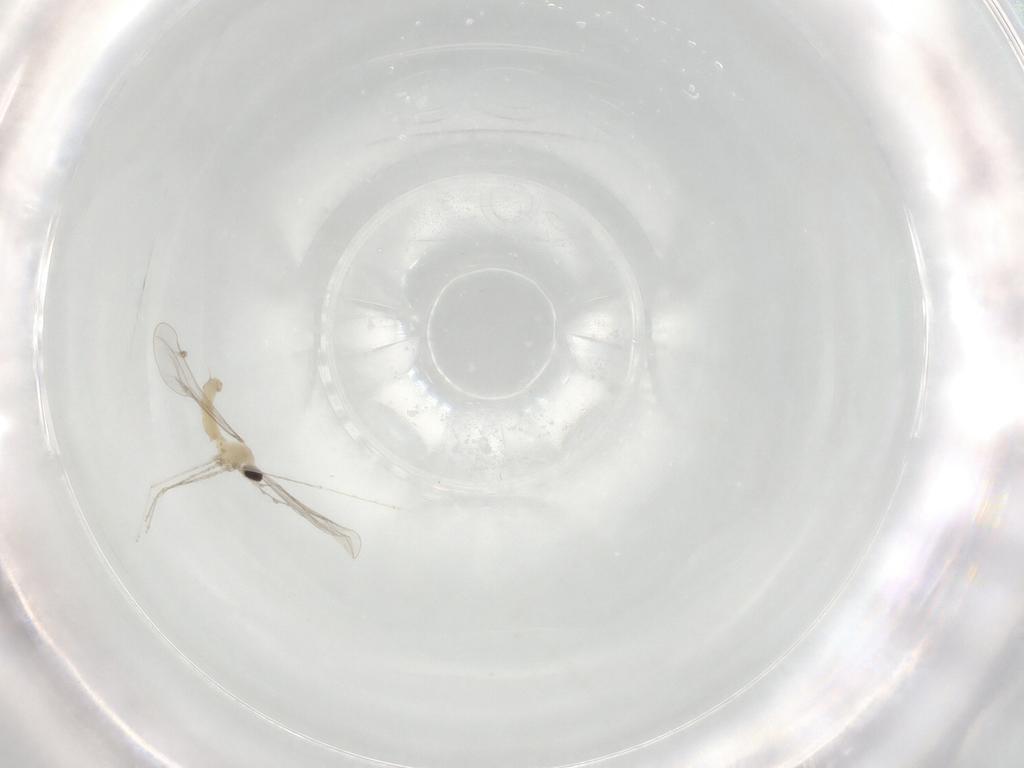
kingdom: Animalia
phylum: Arthropoda
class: Insecta
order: Diptera
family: Cecidomyiidae
